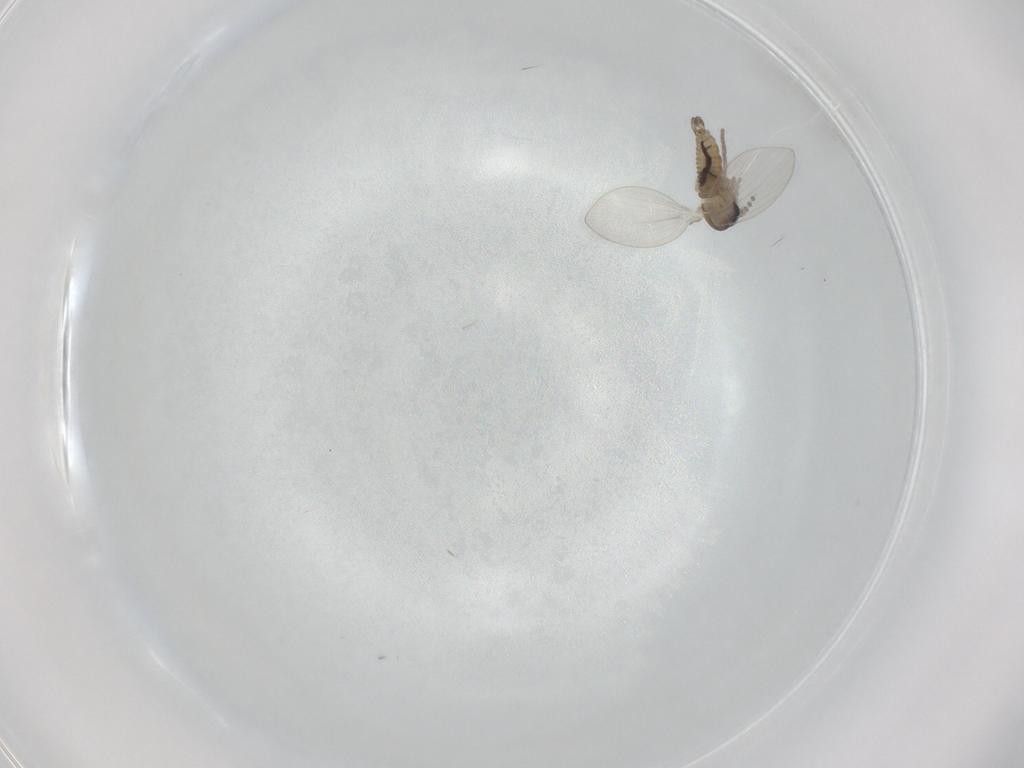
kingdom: Animalia
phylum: Arthropoda
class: Insecta
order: Diptera
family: Psychodidae
